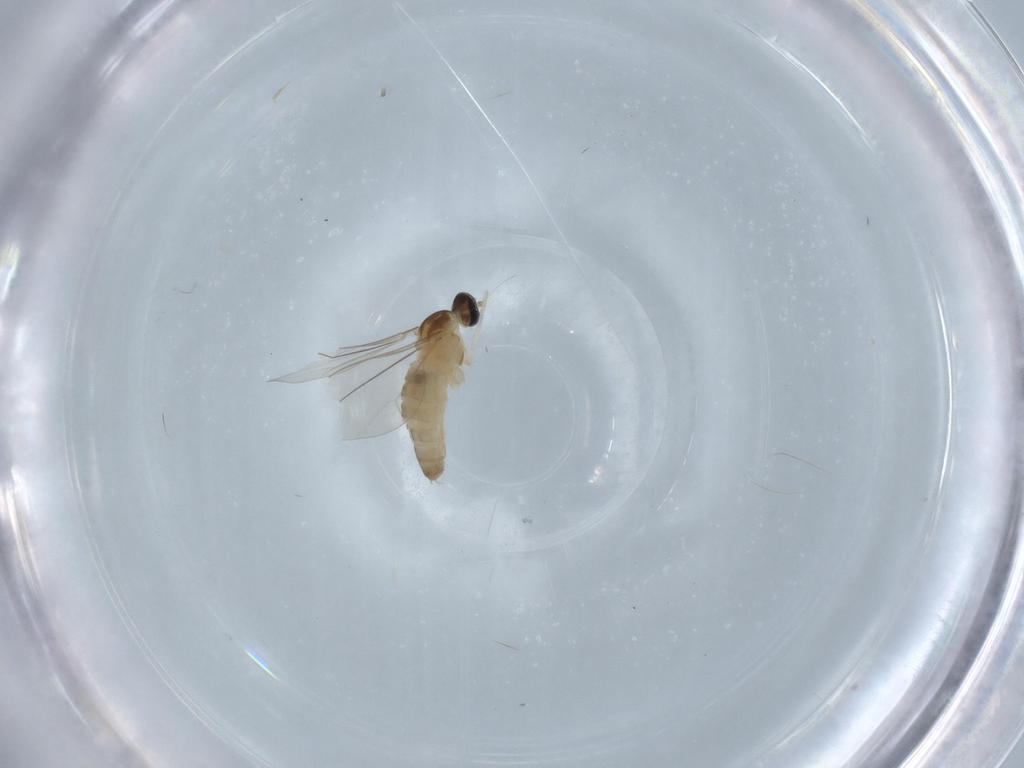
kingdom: Animalia
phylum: Arthropoda
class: Insecta
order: Diptera
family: Cecidomyiidae
